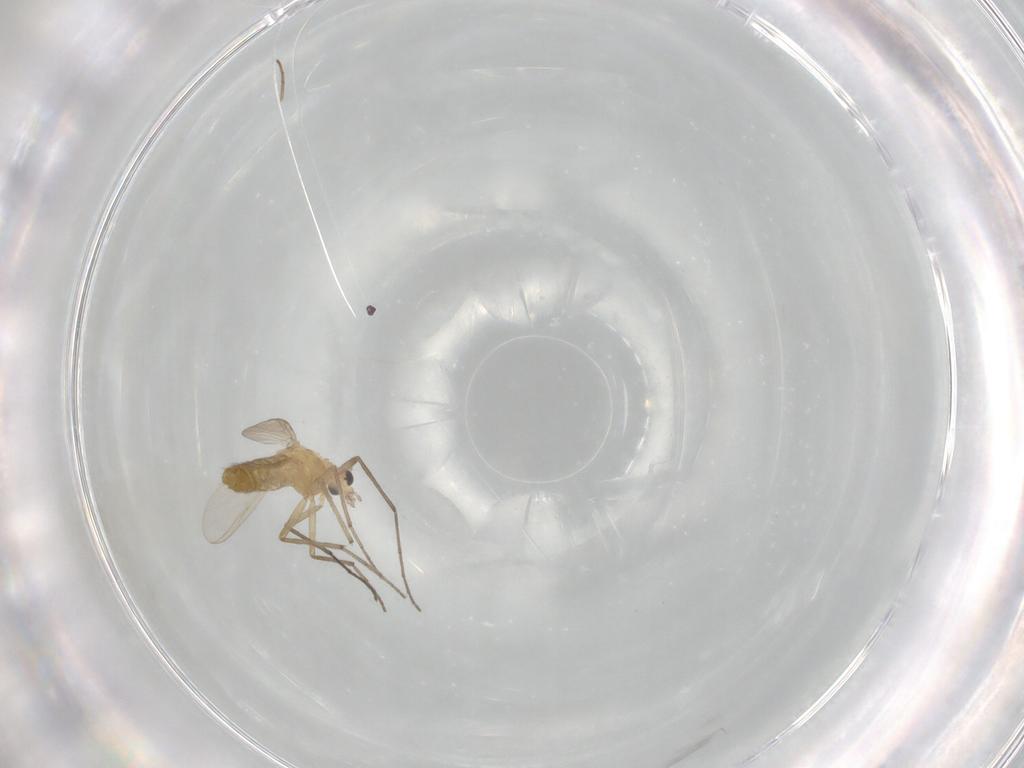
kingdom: Animalia
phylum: Arthropoda
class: Insecta
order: Diptera
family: Chironomidae
